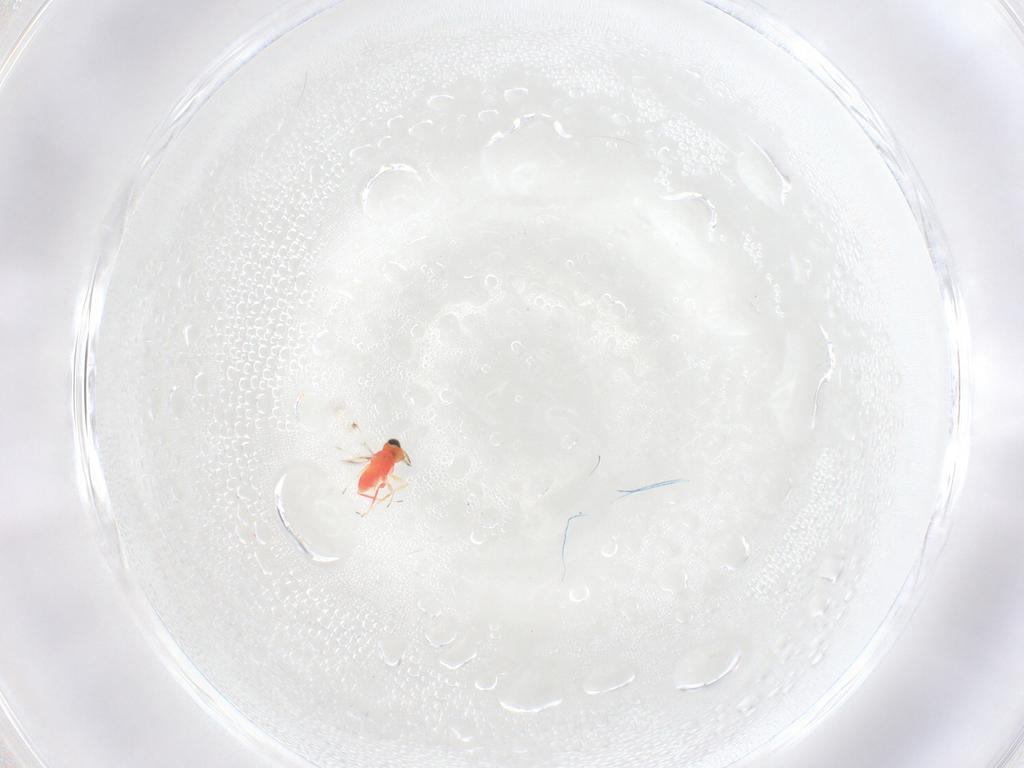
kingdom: Animalia
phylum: Arthropoda
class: Insecta
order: Hymenoptera
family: Trichogrammatidae
